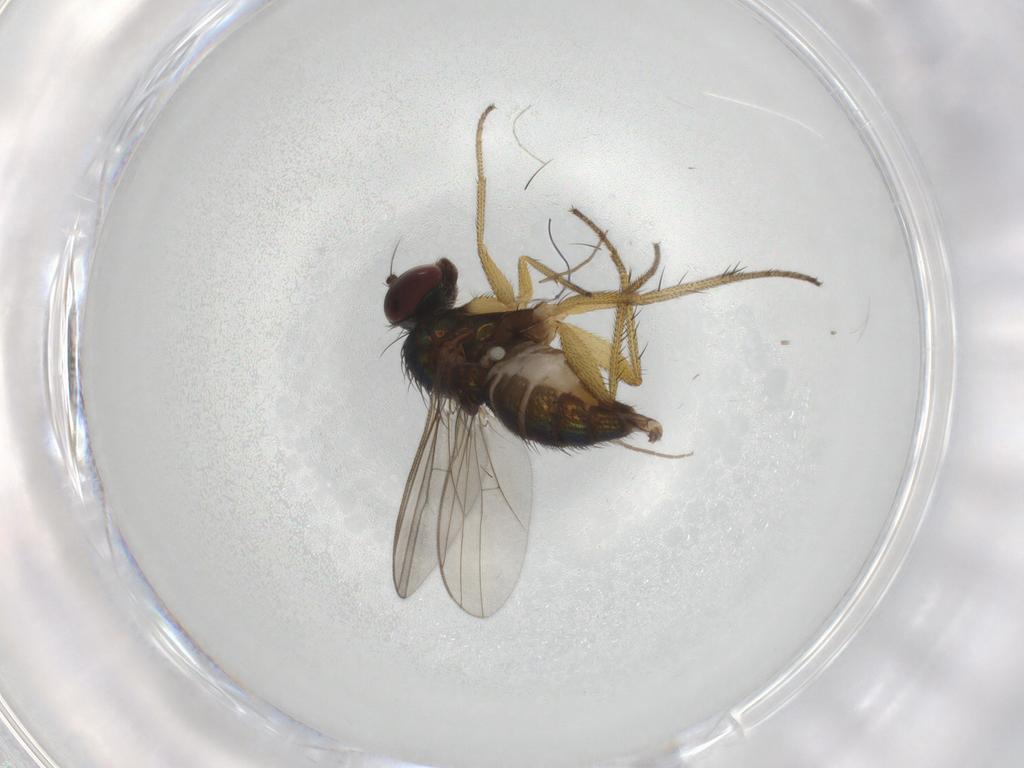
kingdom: Animalia
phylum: Arthropoda
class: Insecta
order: Diptera
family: Dolichopodidae
